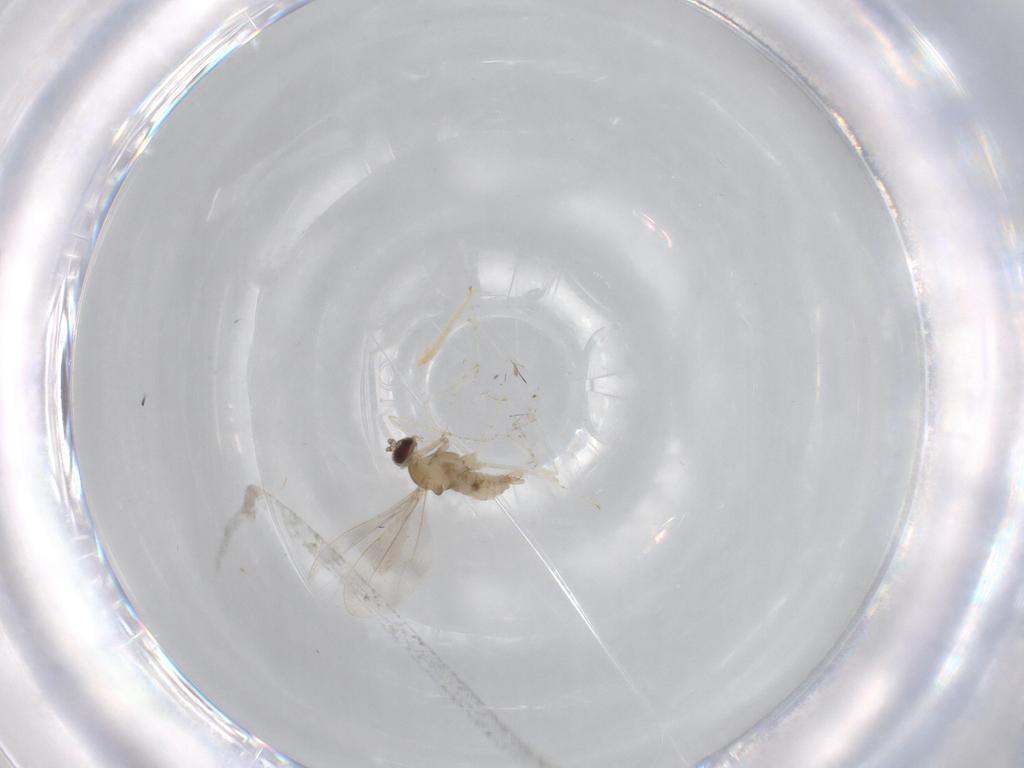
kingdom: Animalia
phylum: Arthropoda
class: Insecta
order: Diptera
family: Cecidomyiidae
